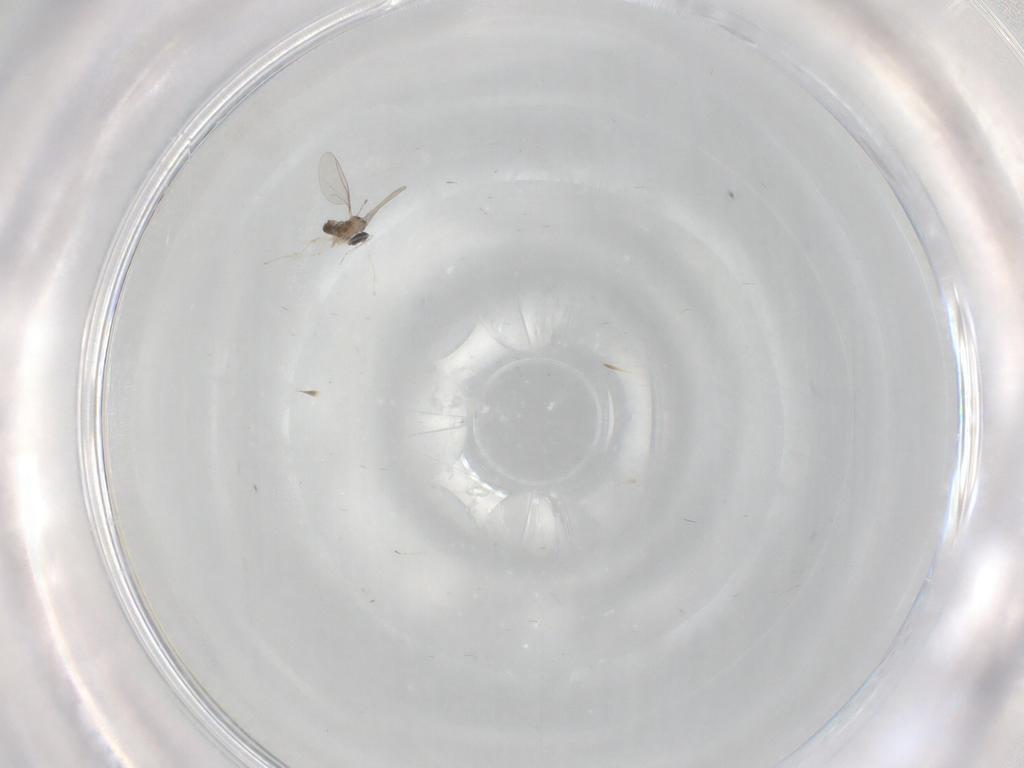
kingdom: Animalia
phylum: Arthropoda
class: Insecta
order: Diptera
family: Cecidomyiidae
